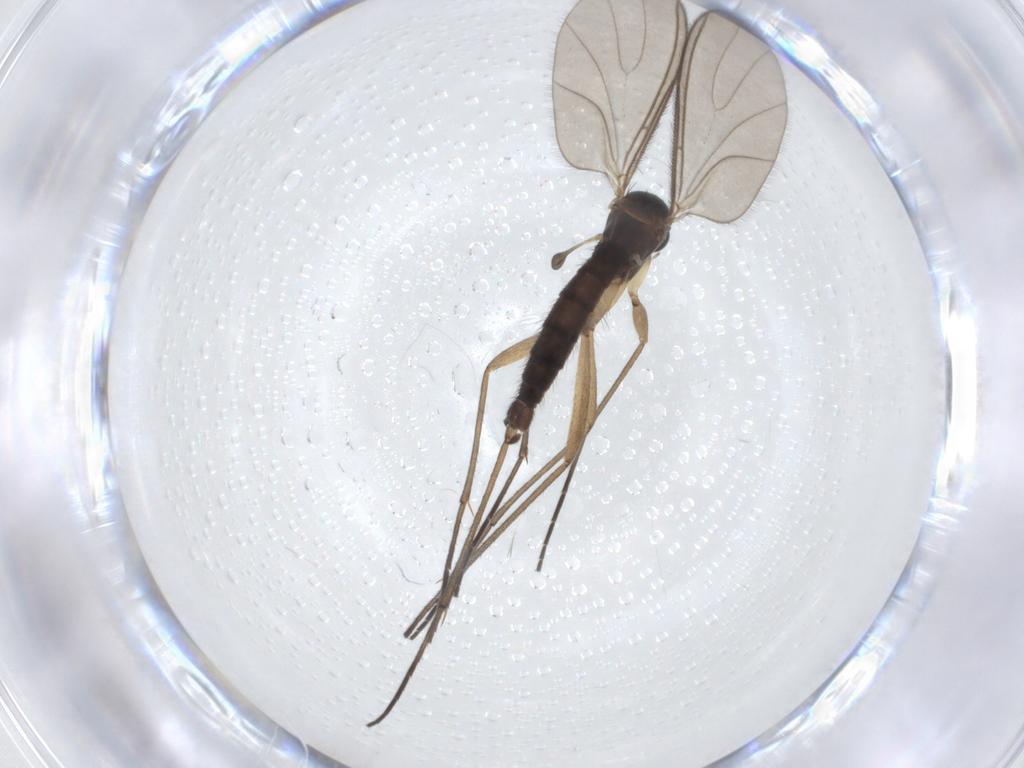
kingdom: Animalia
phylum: Arthropoda
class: Insecta
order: Diptera
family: Sciaridae
